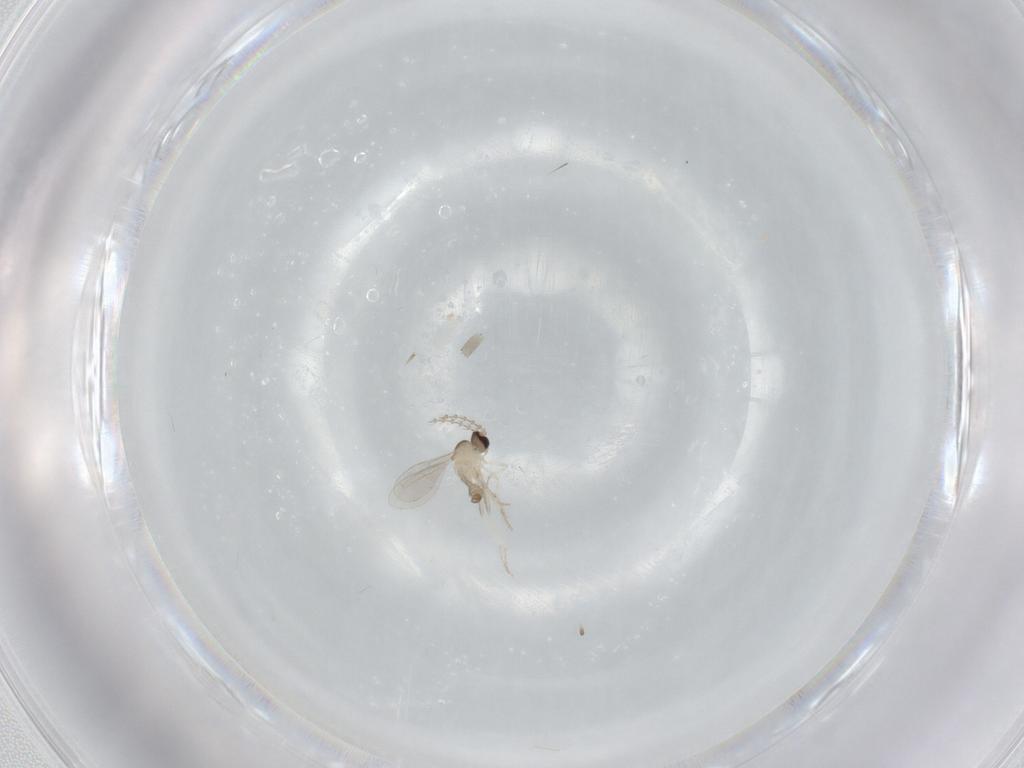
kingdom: Animalia
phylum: Arthropoda
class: Insecta
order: Diptera
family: Cecidomyiidae
